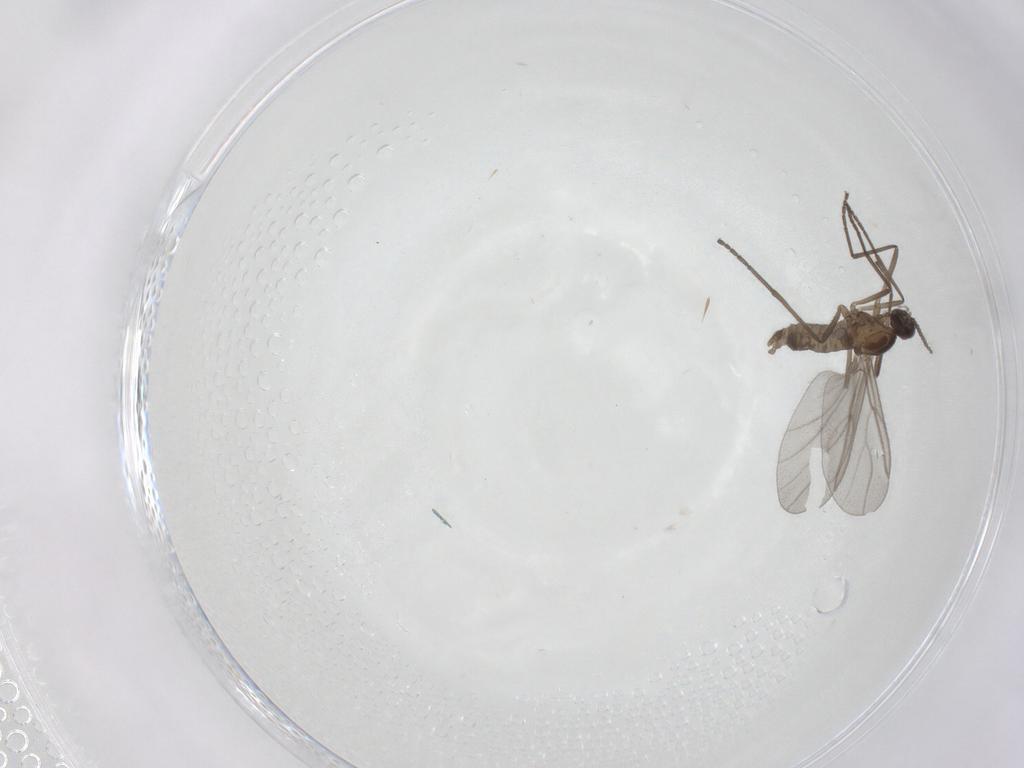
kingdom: Animalia
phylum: Arthropoda
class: Insecta
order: Diptera
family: Cecidomyiidae
